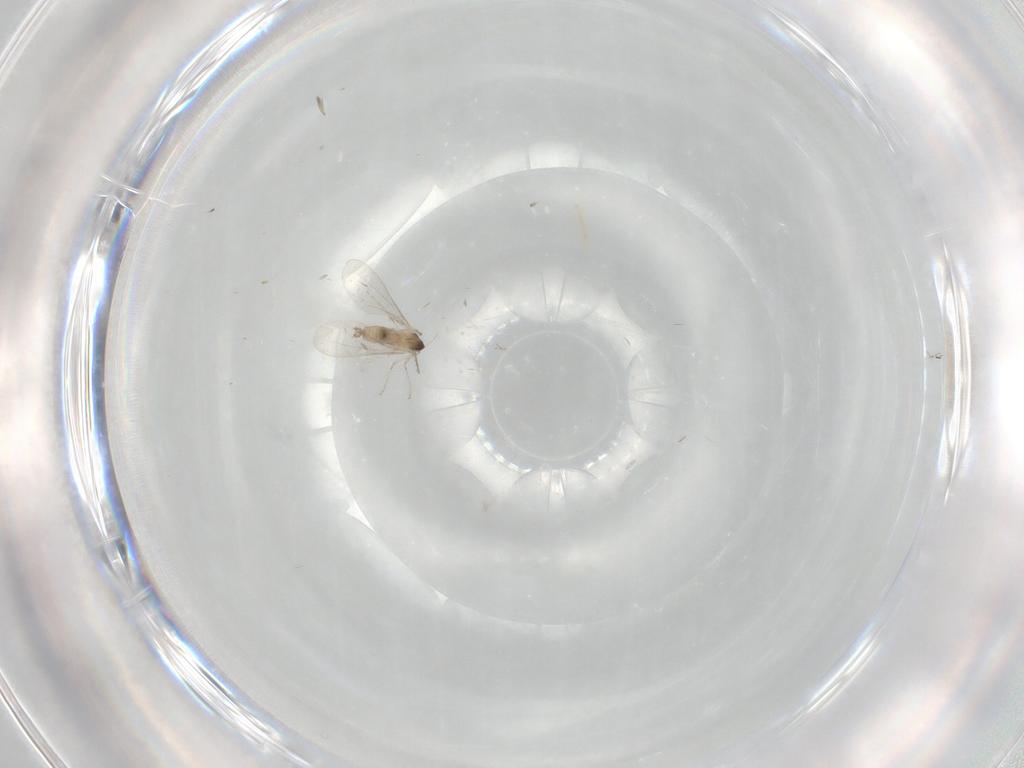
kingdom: Animalia
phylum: Arthropoda
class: Insecta
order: Diptera
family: Cecidomyiidae
